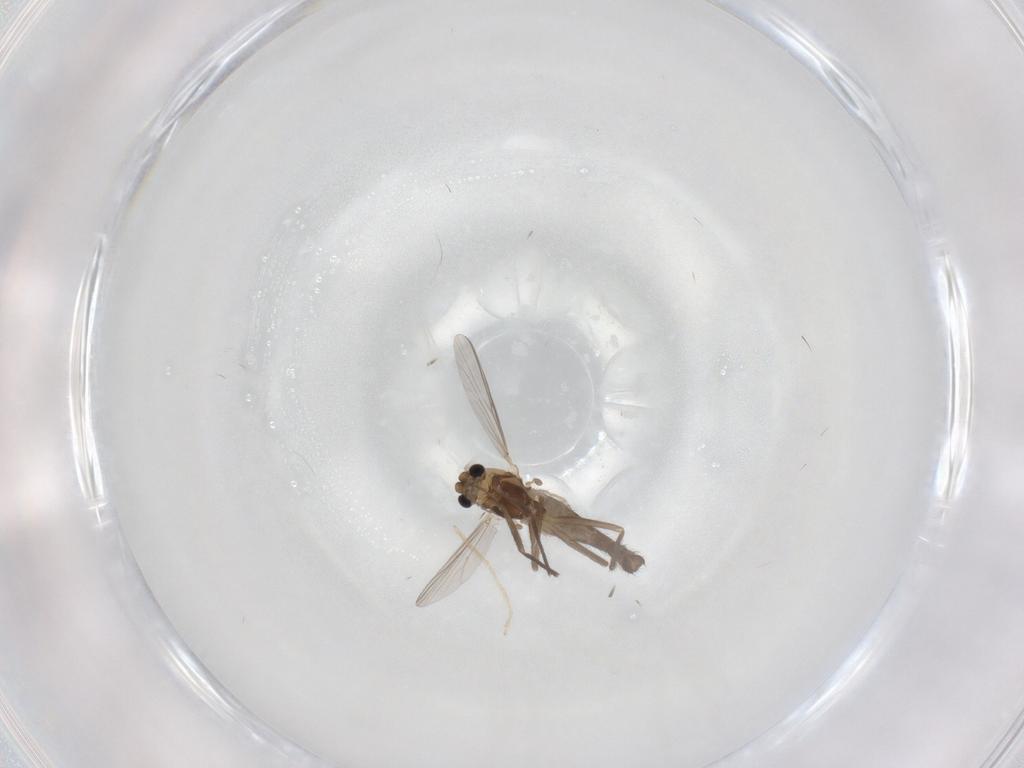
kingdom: Animalia
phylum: Arthropoda
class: Insecta
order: Diptera
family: Chironomidae
